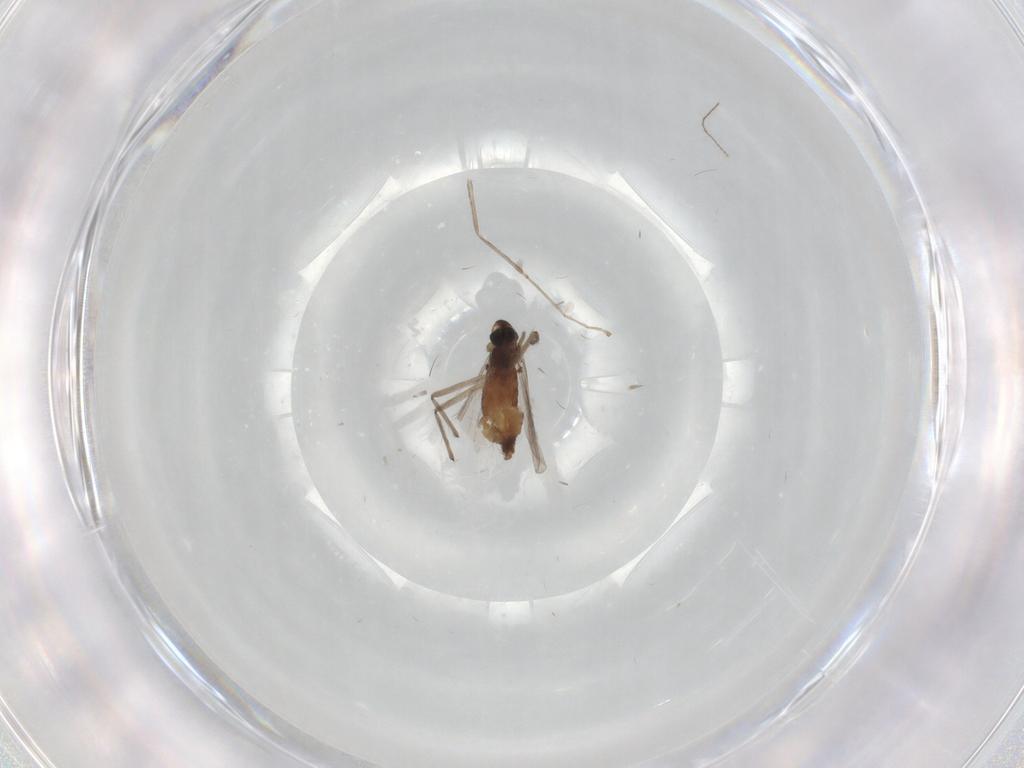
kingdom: Animalia
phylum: Arthropoda
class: Insecta
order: Diptera
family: Chironomidae
